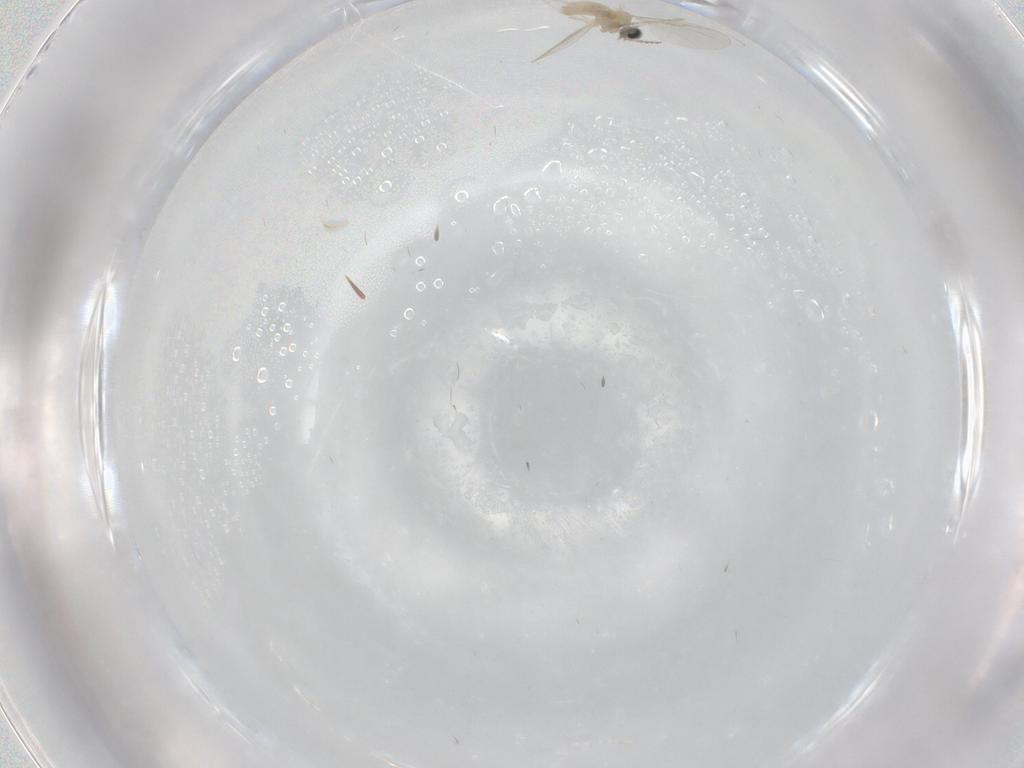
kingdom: Animalia
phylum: Arthropoda
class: Insecta
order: Diptera
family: Cecidomyiidae
